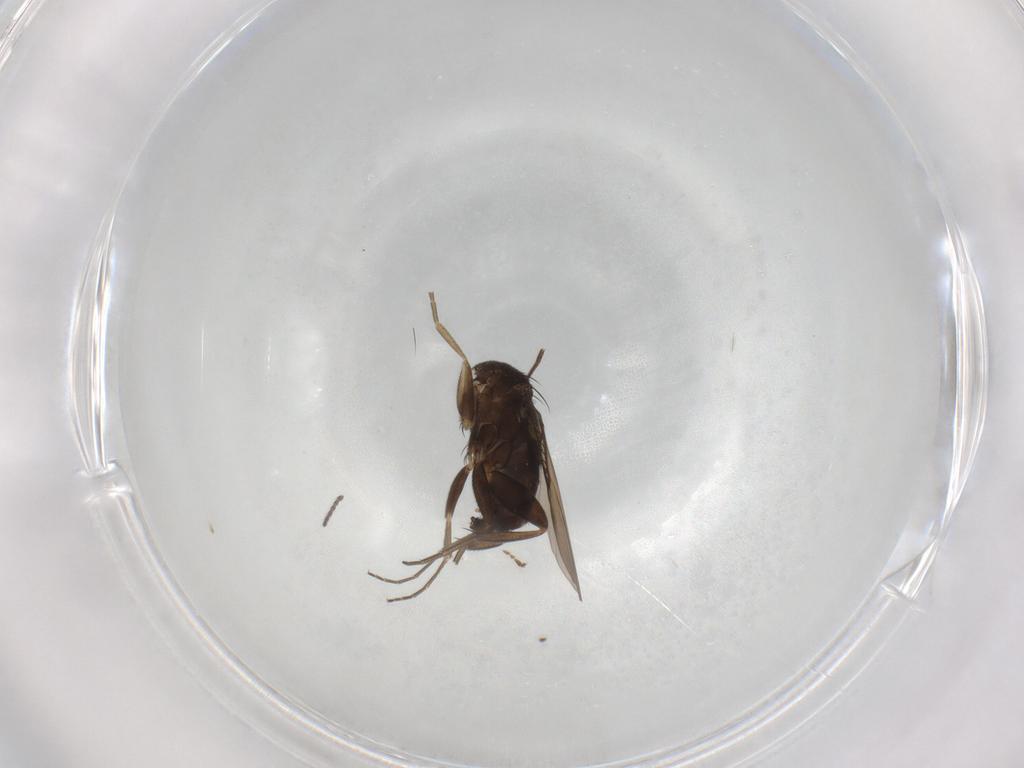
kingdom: Animalia
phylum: Arthropoda
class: Insecta
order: Diptera
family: Phoridae
